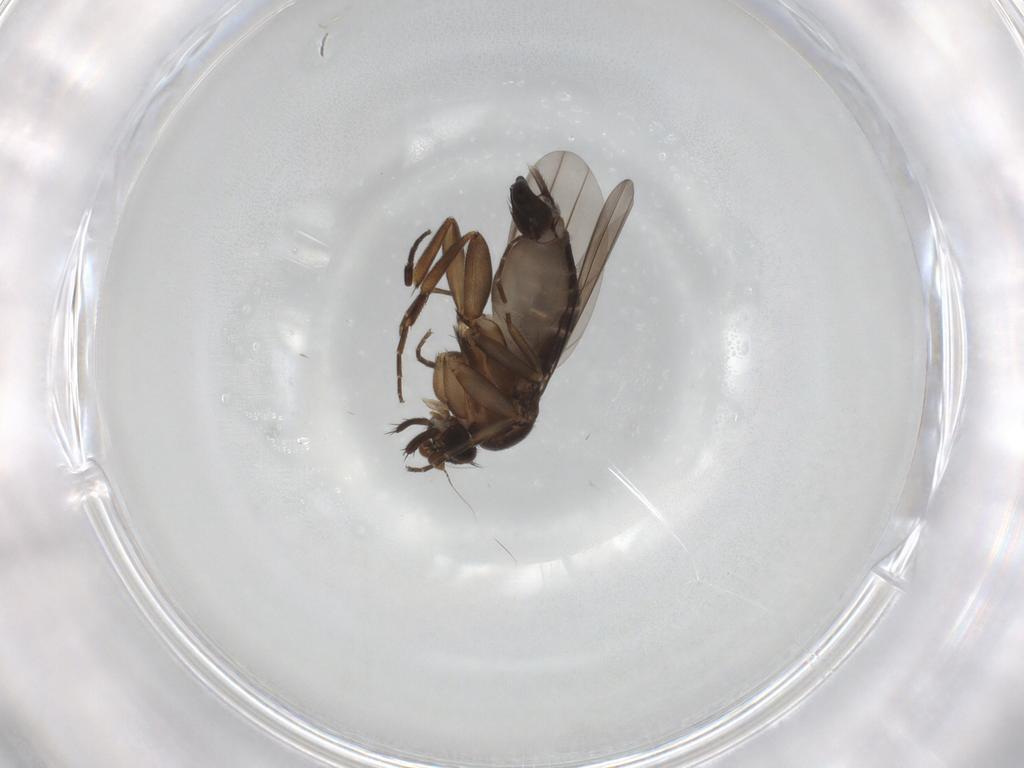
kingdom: Animalia
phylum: Arthropoda
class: Insecta
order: Diptera
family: Phoridae
